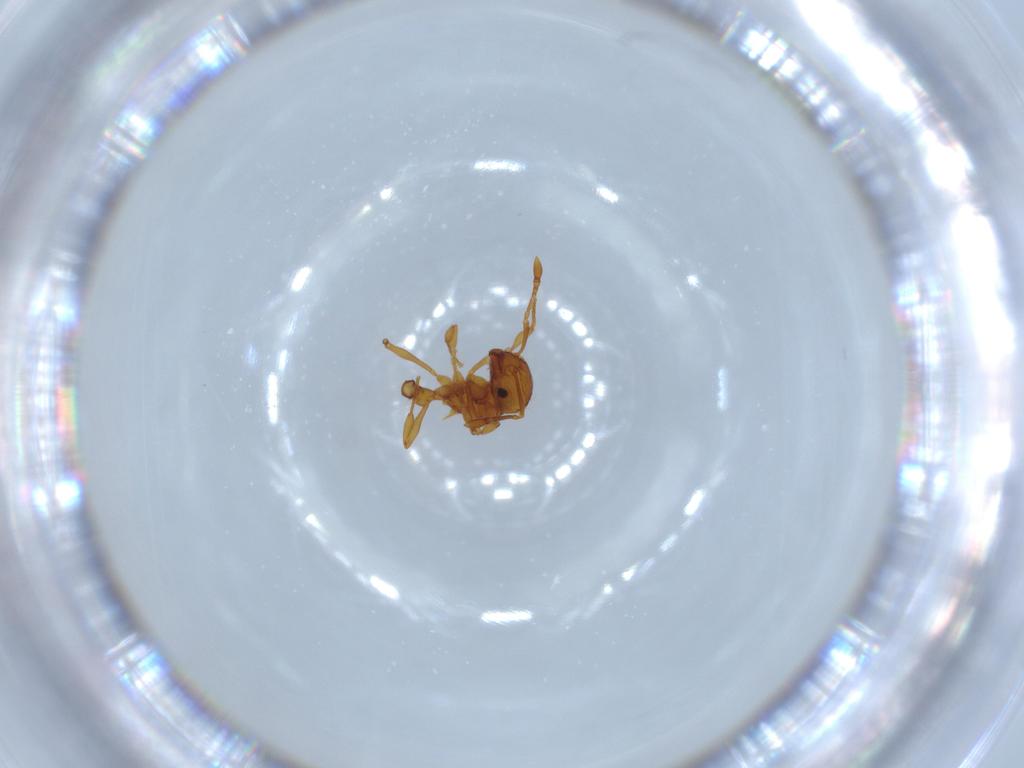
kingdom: Animalia
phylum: Arthropoda
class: Insecta
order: Hymenoptera
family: Formicidae
